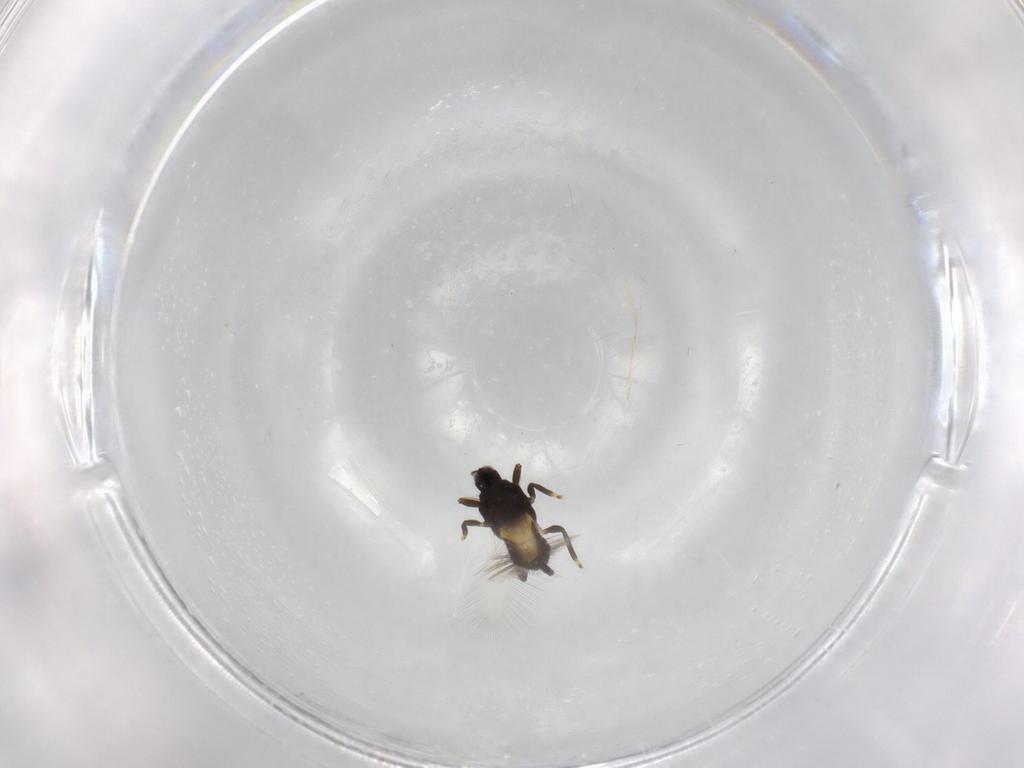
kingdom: Animalia
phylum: Arthropoda
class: Insecta
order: Thysanoptera
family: Phlaeothripidae
